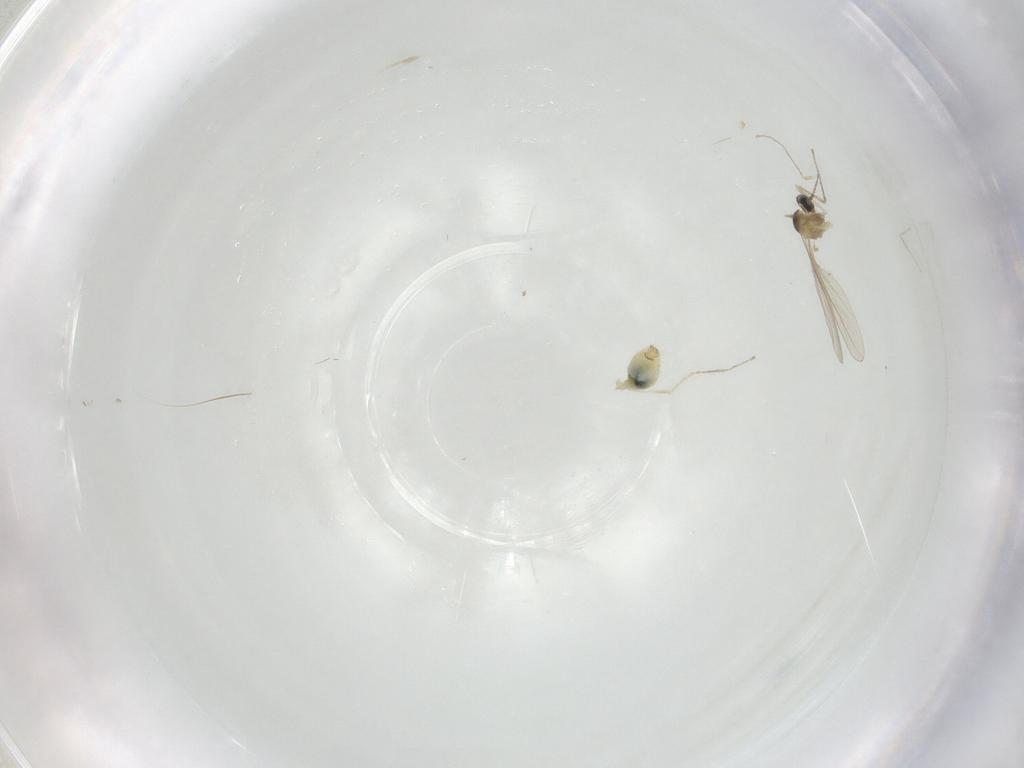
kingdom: Animalia
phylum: Arthropoda
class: Insecta
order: Diptera
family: Cecidomyiidae
